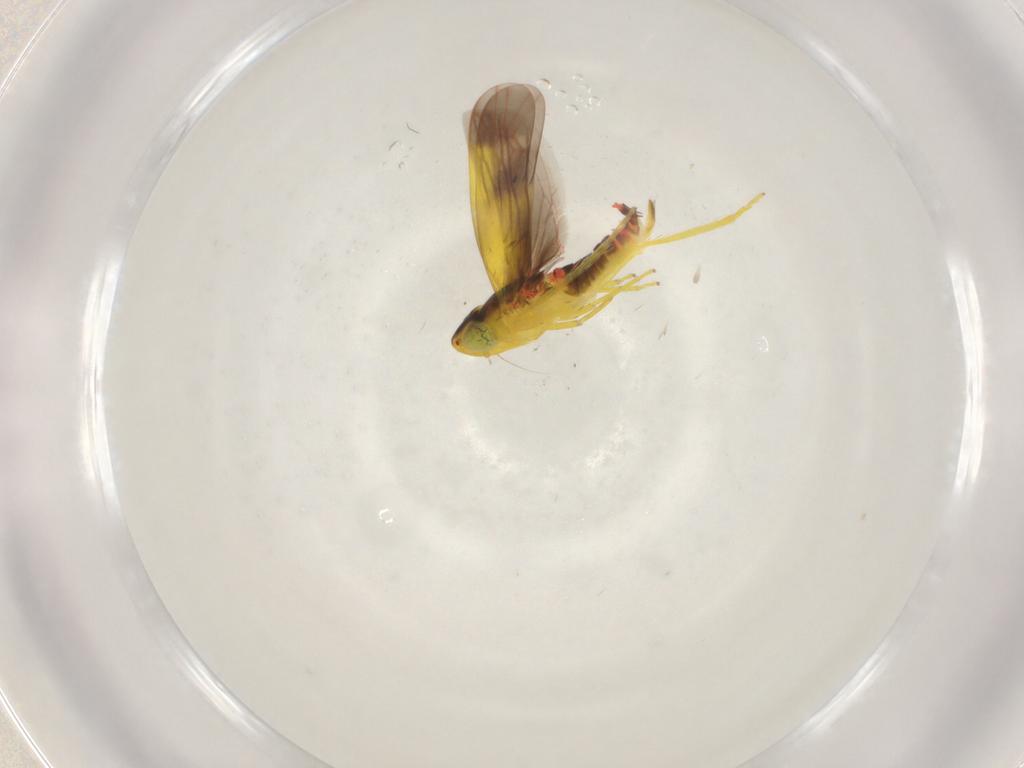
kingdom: Animalia
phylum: Arthropoda
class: Insecta
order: Hemiptera
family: Cicadellidae
